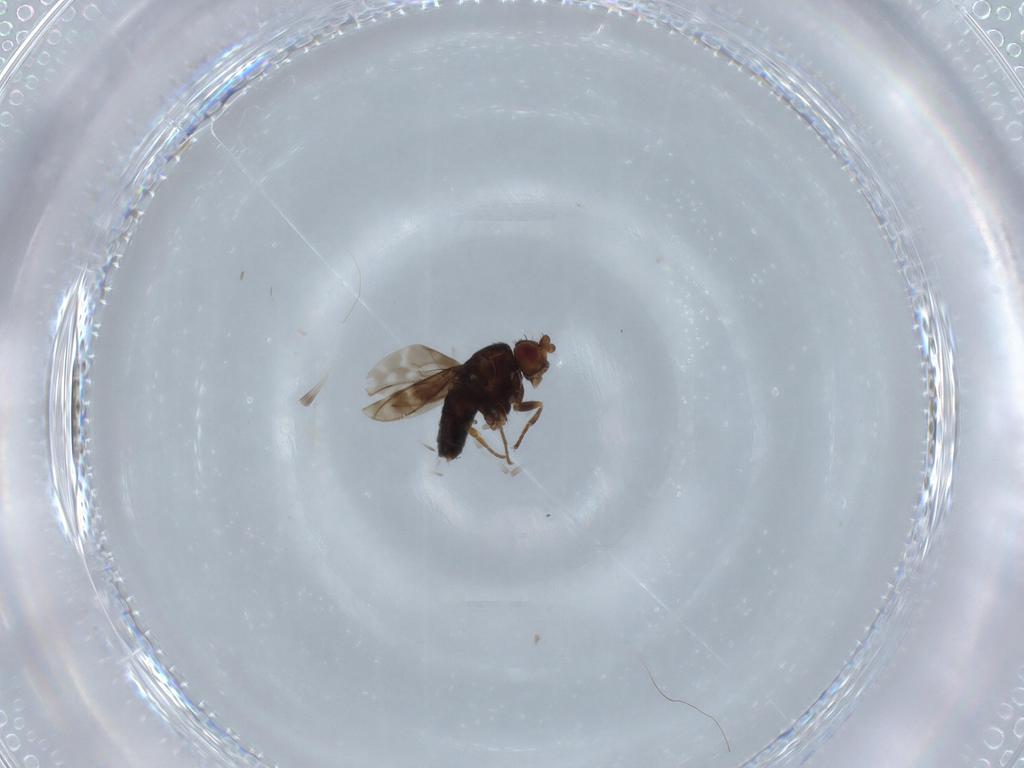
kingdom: Animalia
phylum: Arthropoda
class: Insecta
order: Diptera
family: Sphaeroceridae
